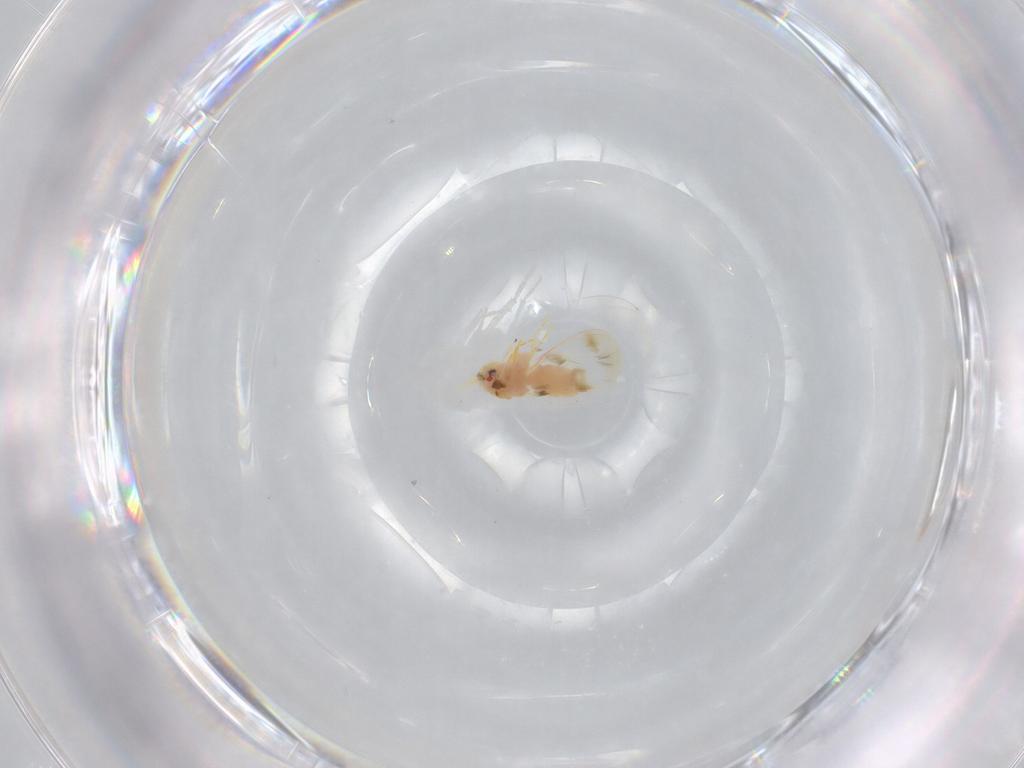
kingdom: Animalia
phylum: Arthropoda
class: Insecta
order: Hemiptera
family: Aleyrodidae
